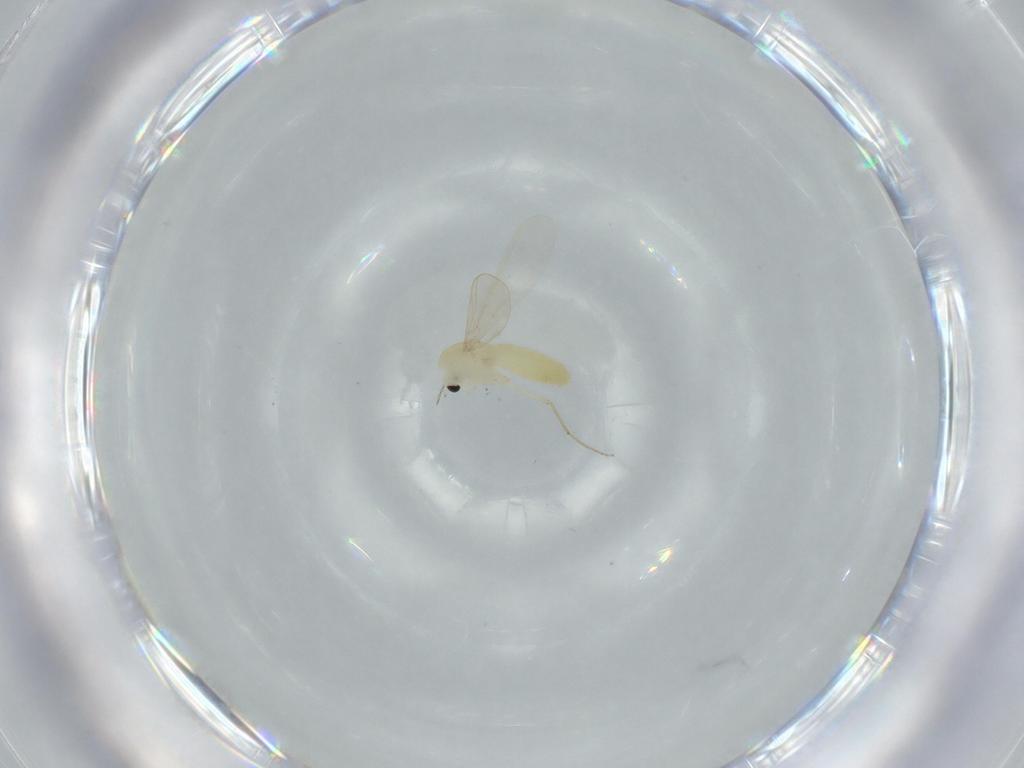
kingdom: Animalia
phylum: Arthropoda
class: Insecta
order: Diptera
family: Chironomidae
